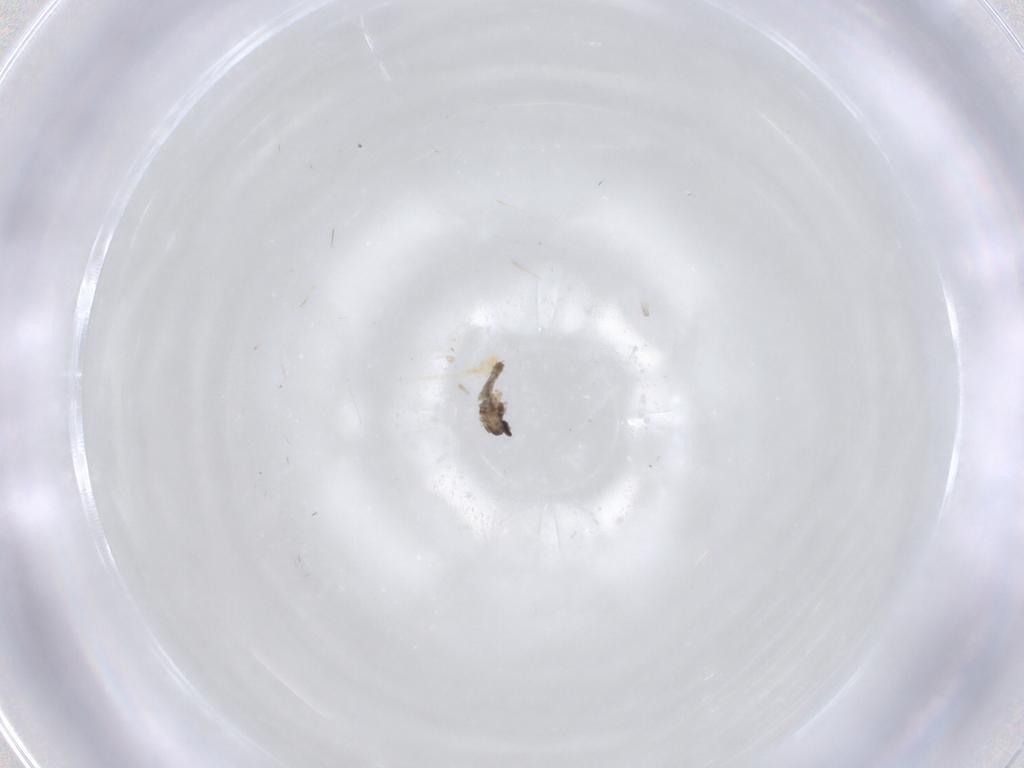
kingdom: Animalia
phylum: Arthropoda
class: Insecta
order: Diptera
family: Cecidomyiidae
